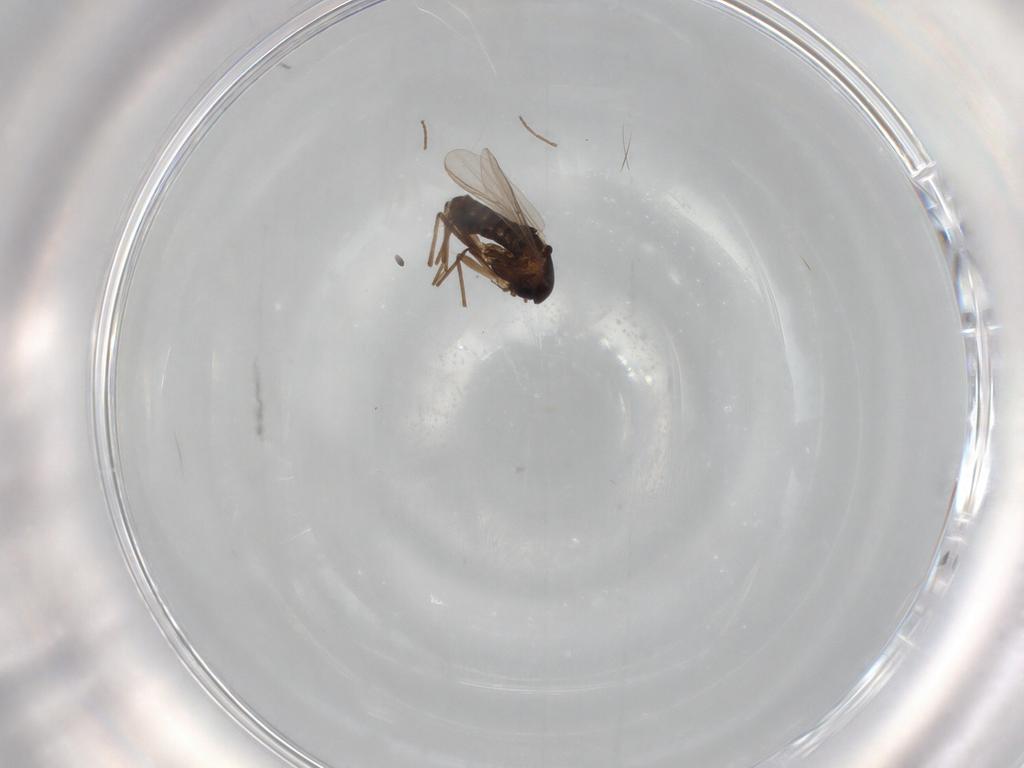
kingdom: Animalia
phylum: Arthropoda
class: Insecta
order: Diptera
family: Chironomidae
